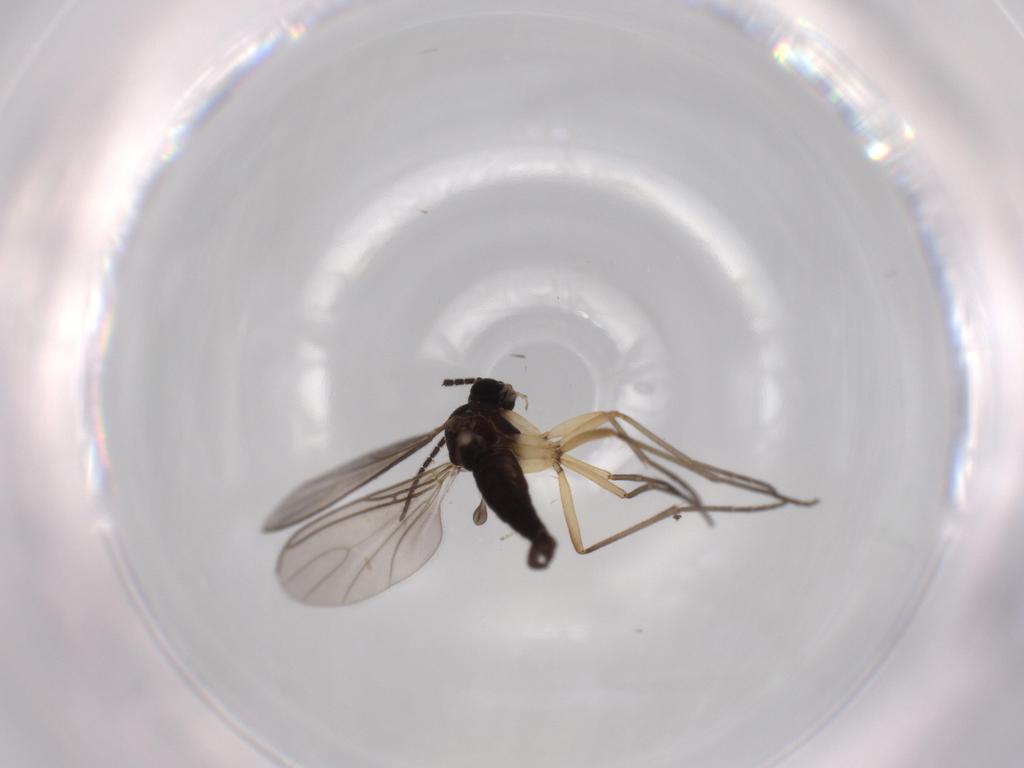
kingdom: Animalia
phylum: Arthropoda
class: Insecta
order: Diptera
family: Sciaridae
